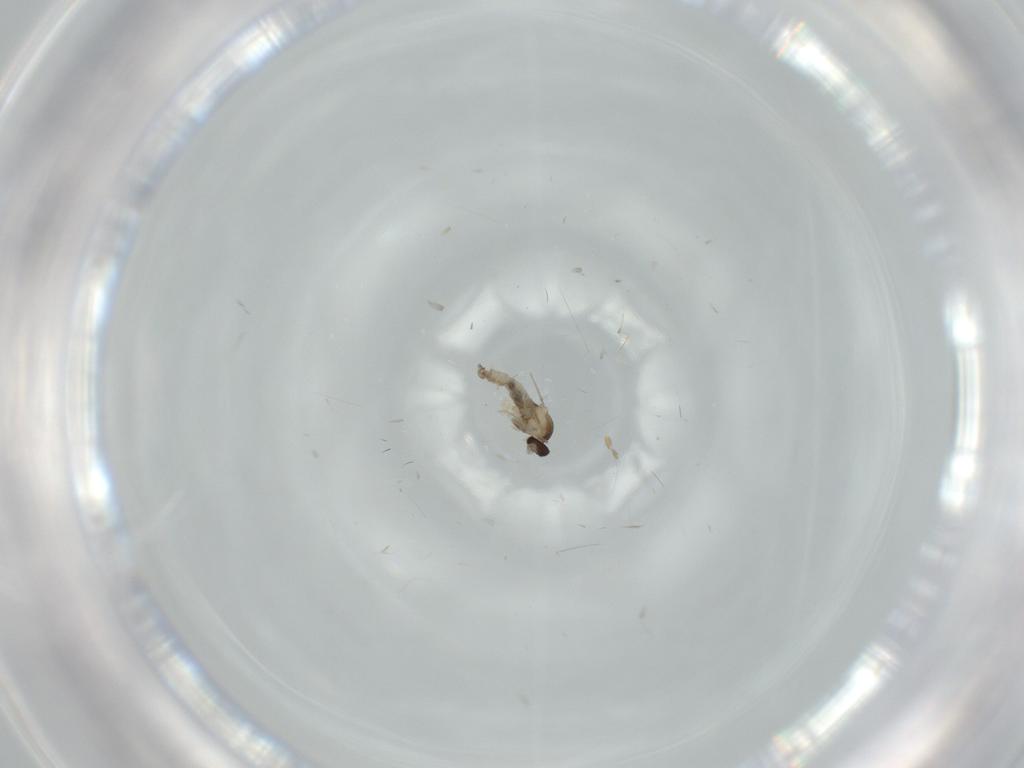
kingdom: Animalia
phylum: Arthropoda
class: Insecta
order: Diptera
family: Cecidomyiidae
